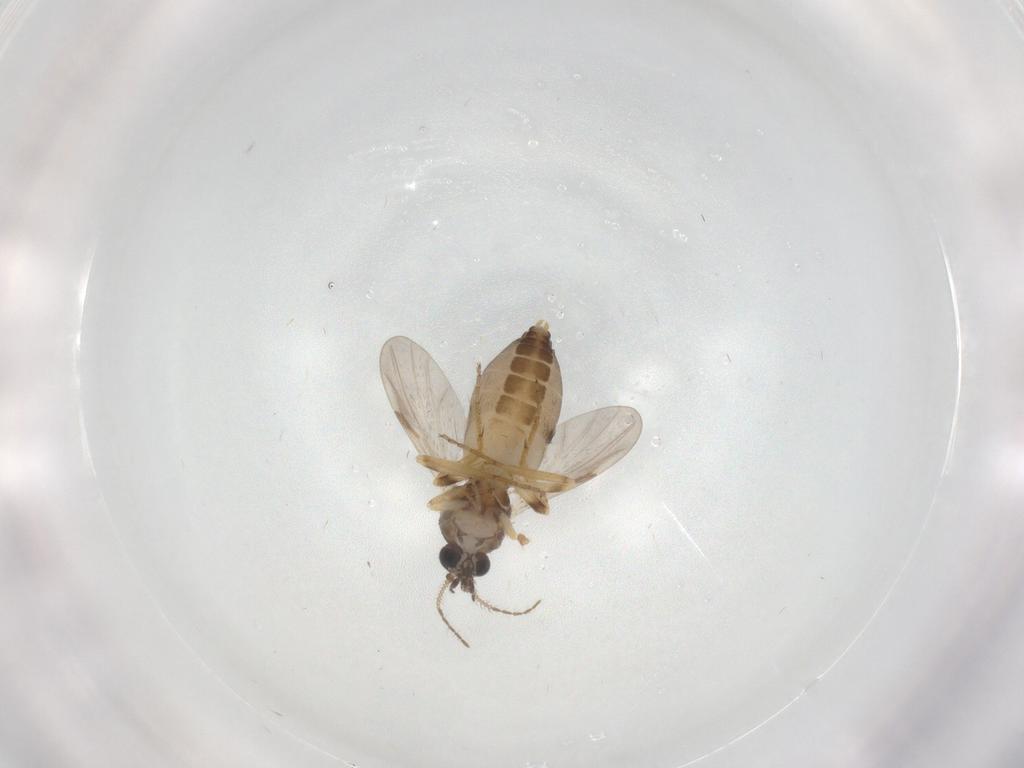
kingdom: Animalia
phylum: Arthropoda
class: Insecta
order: Diptera
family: Ceratopogonidae
